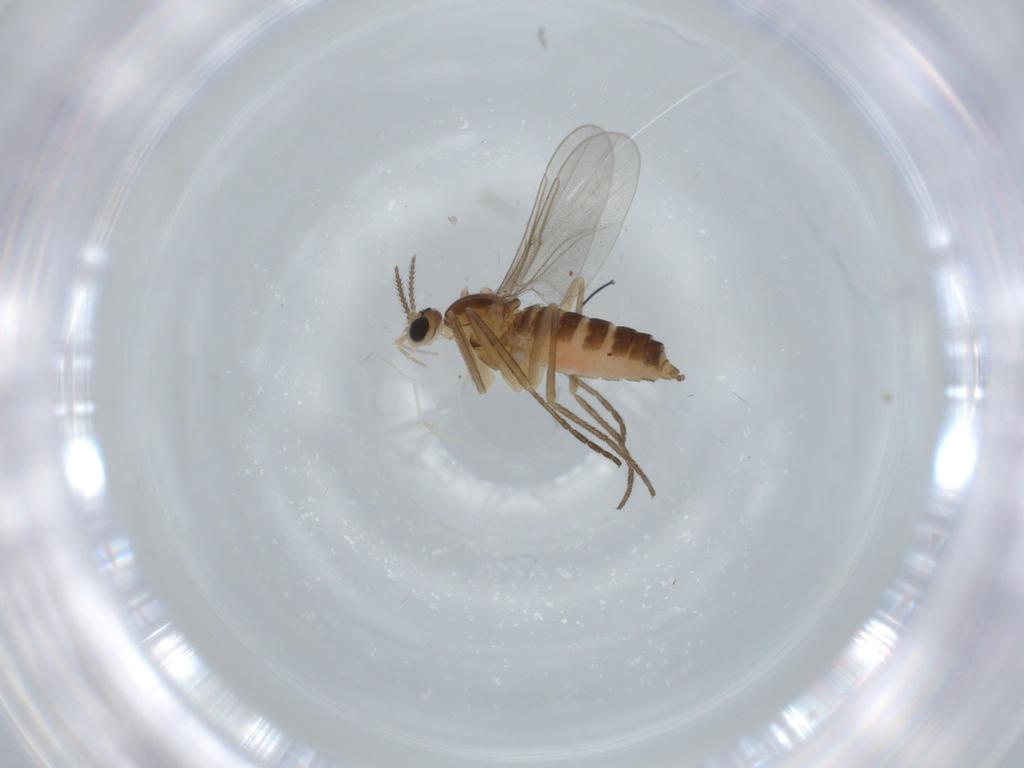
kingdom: Animalia
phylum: Arthropoda
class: Insecta
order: Diptera
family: Cecidomyiidae
